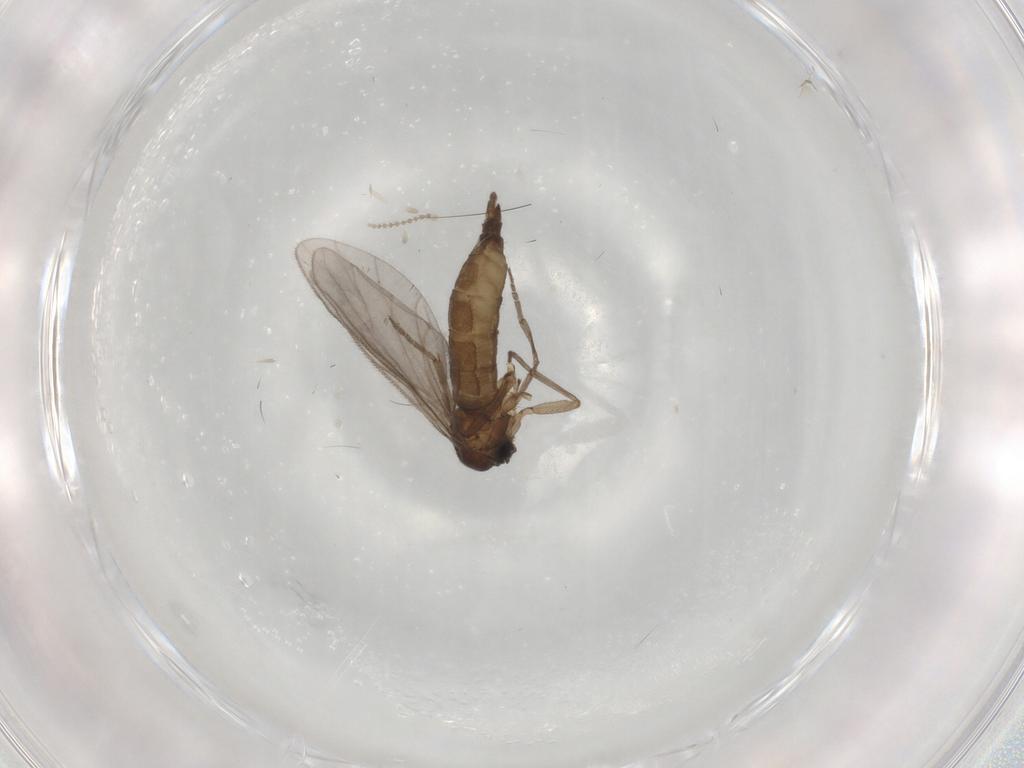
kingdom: Animalia
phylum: Arthropoda
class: Insecta
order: Diptera
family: Sciaridae
